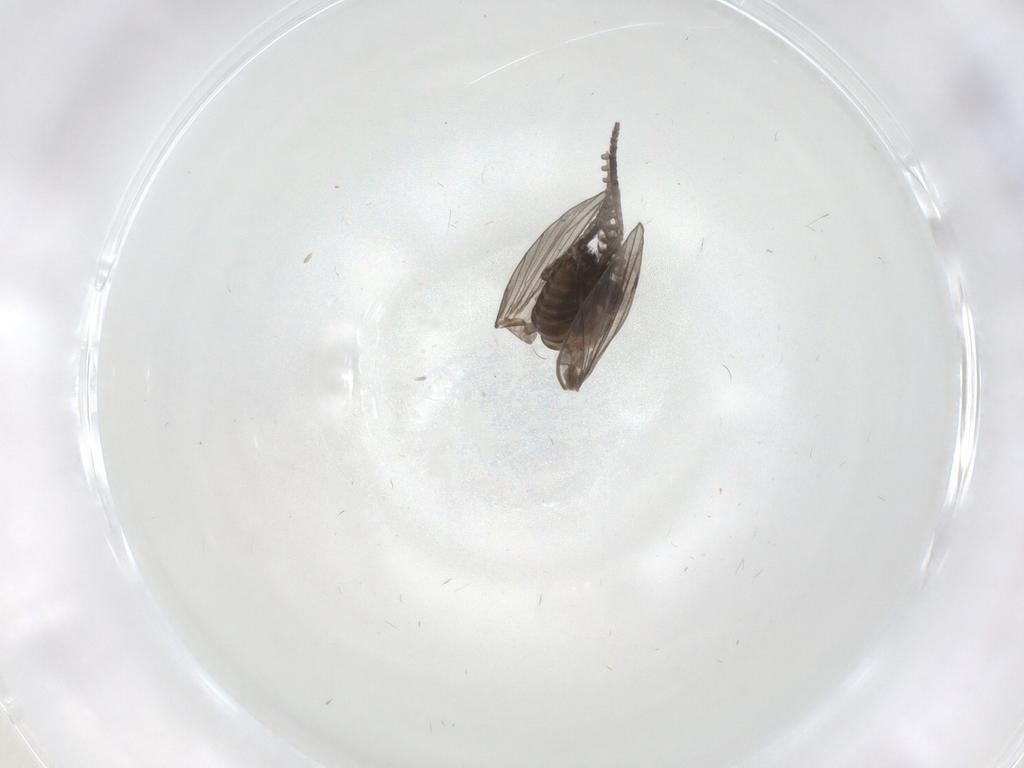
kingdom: Animalia
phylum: Arthropoda
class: Insecta
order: Diptera
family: Psychodidae
